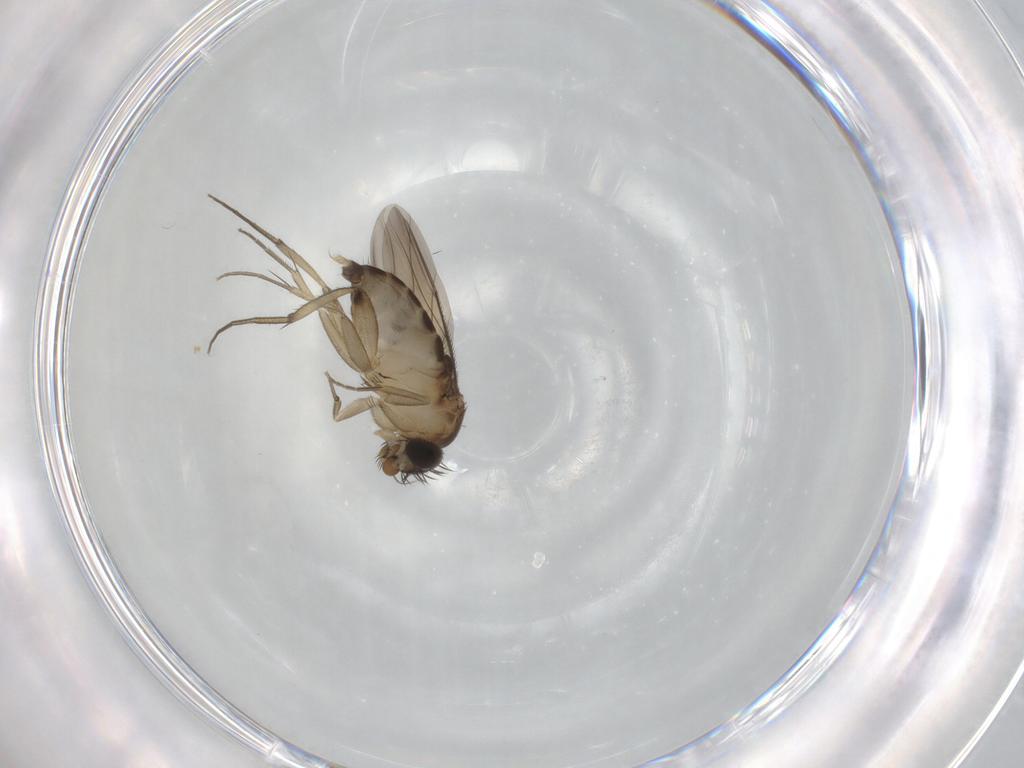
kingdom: Animalia
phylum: Arthropoda
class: Insecta
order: Diptera
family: Phoridae
